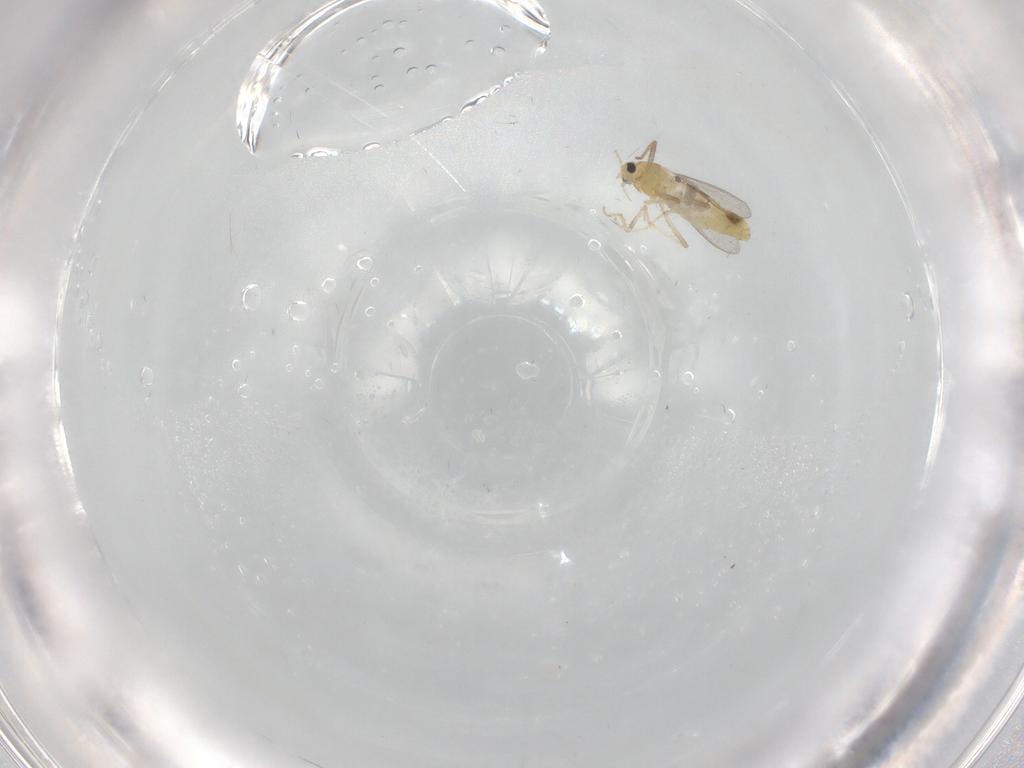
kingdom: Animalia
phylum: Arthropoda
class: Insecta
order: Diptera
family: Chironomidae
